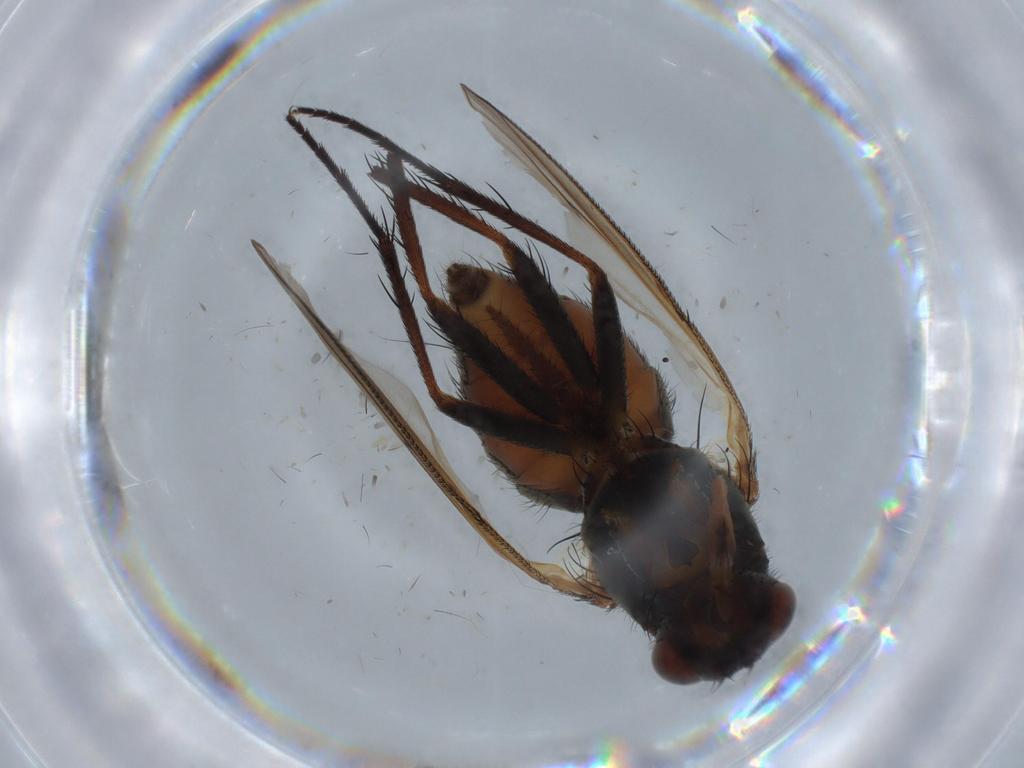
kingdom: Animalia
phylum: Arthropoda
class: Insecta
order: Diptera
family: Anthomyiidae
